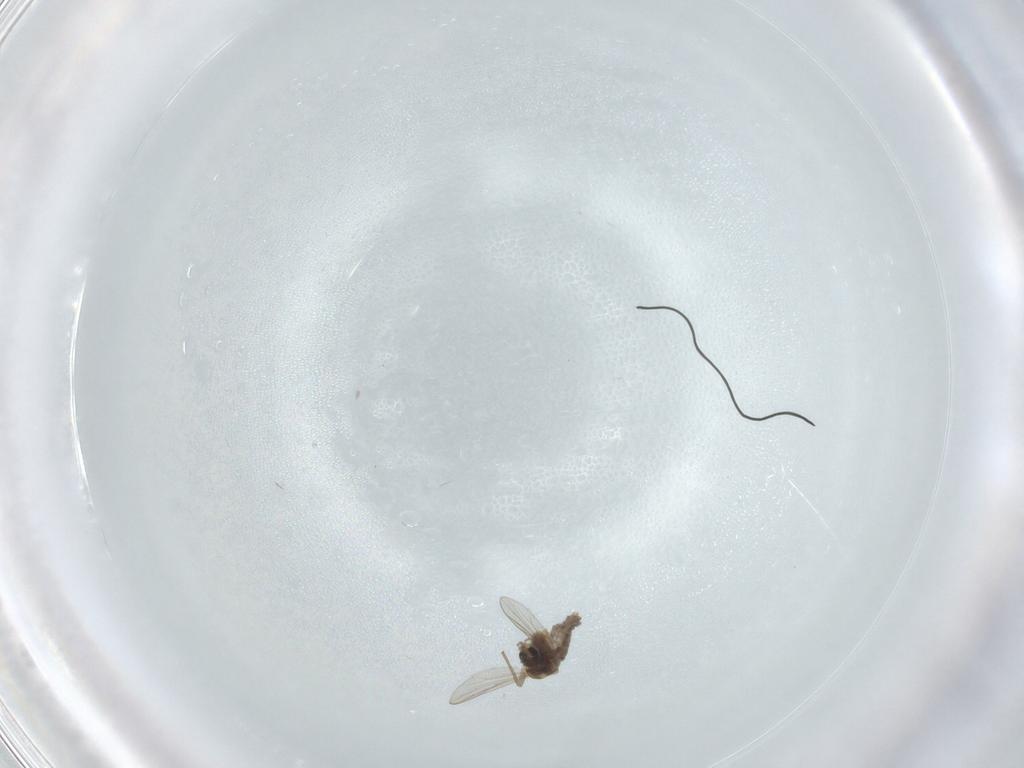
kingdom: Animalia
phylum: Arthropoda
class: Insecta
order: Diptera
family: Chironomidae
